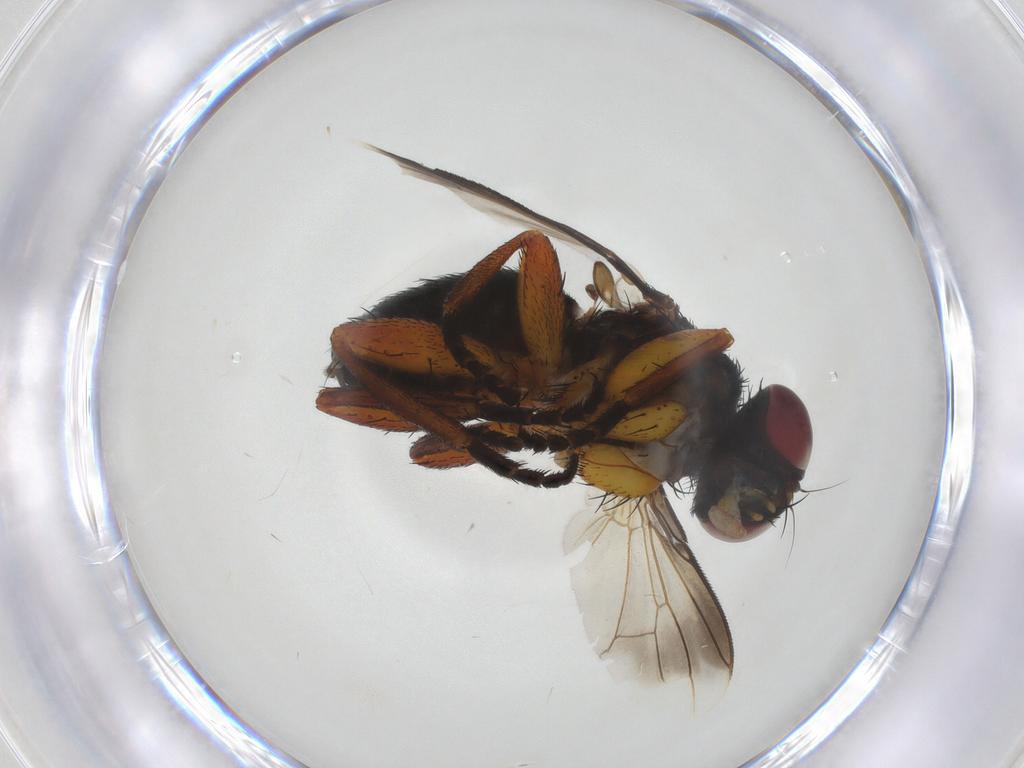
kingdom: Animalia
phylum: Arthropoda
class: Insecta
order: Diptera
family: Tachinidae
